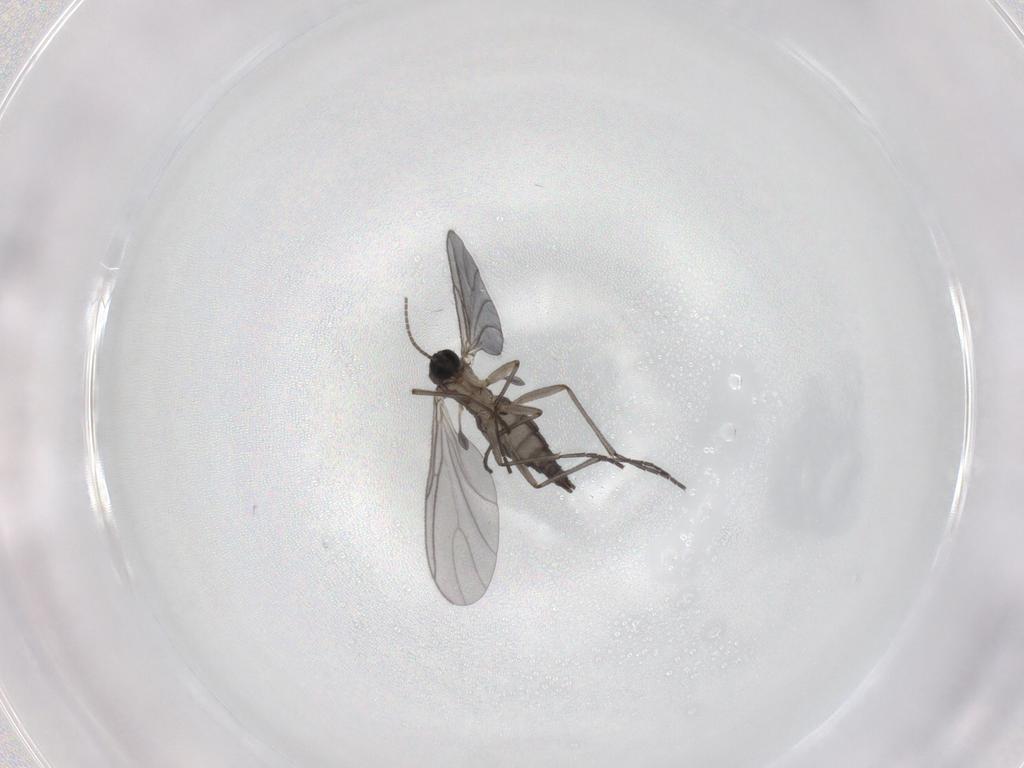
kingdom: Animalia
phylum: Arthropoda
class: Insecta
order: Diptera
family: Sciaridae
